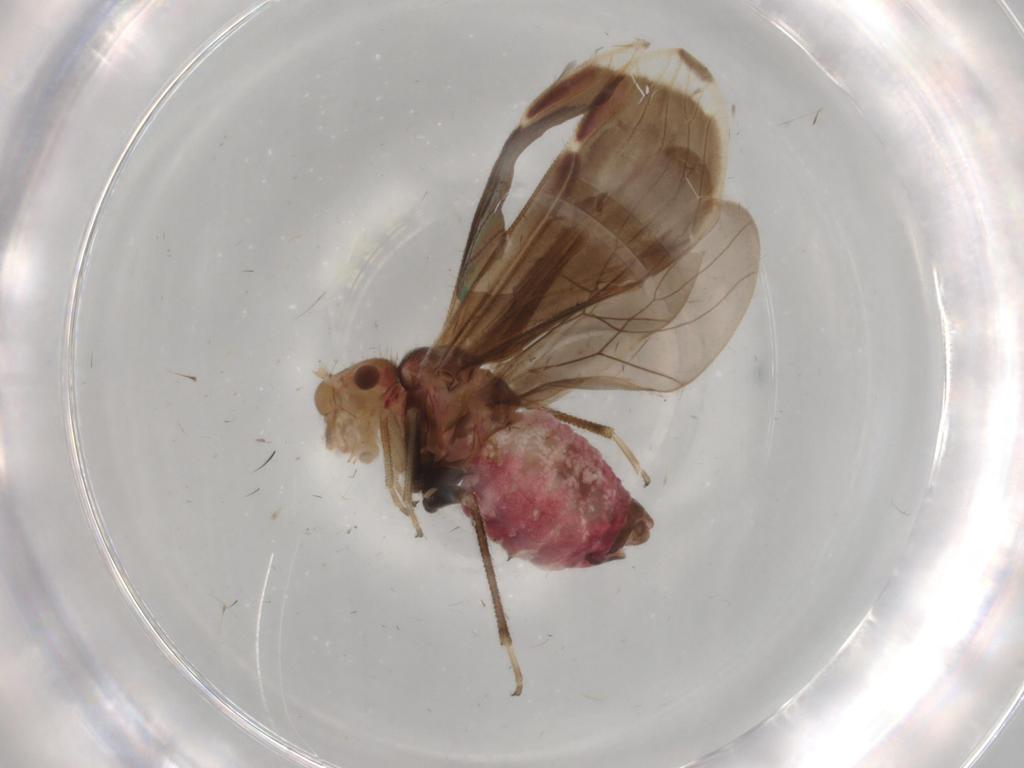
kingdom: Animalia
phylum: Arthropoda
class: Insecta
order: Psocodea
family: Amphipsocidae
